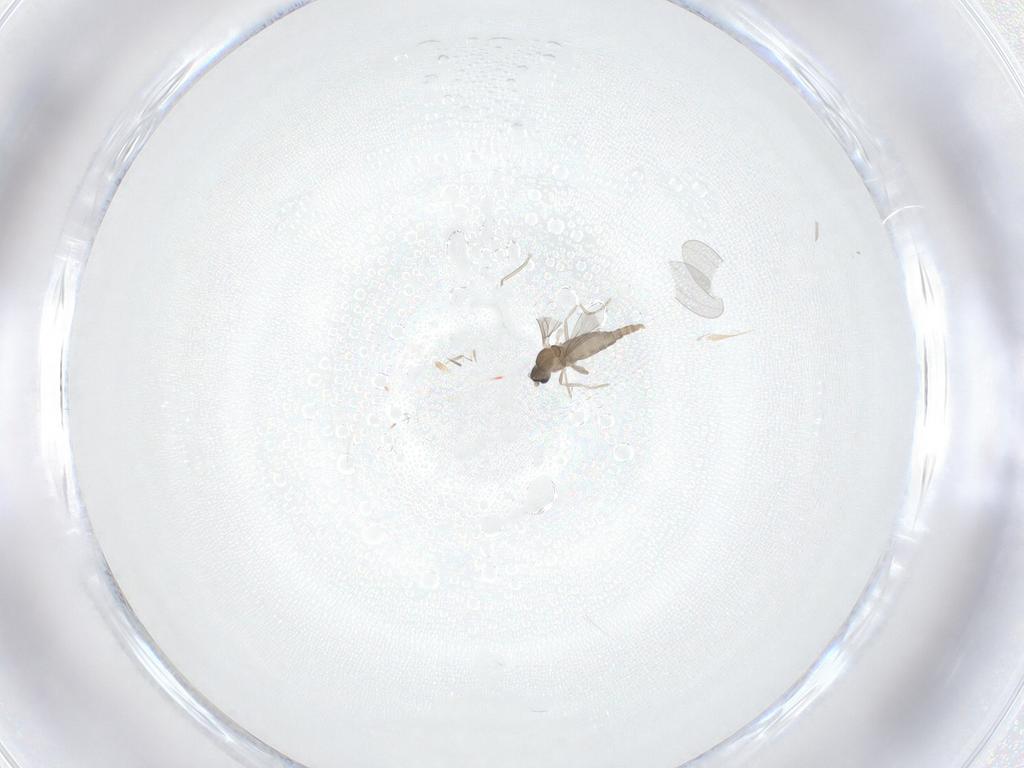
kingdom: Animalia
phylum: Arthropoda
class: Insecta
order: Diptera
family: Cecidomyiidae
